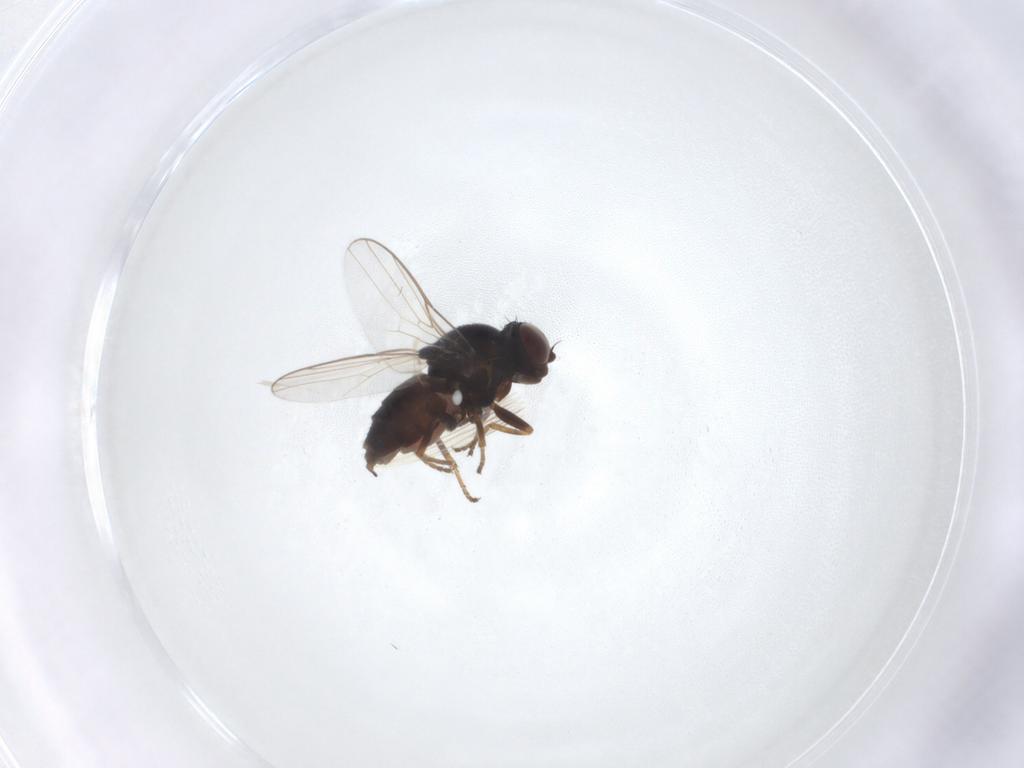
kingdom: Animalia
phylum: Arthropoda
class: Insecta
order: Diptera
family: Chloropidae
